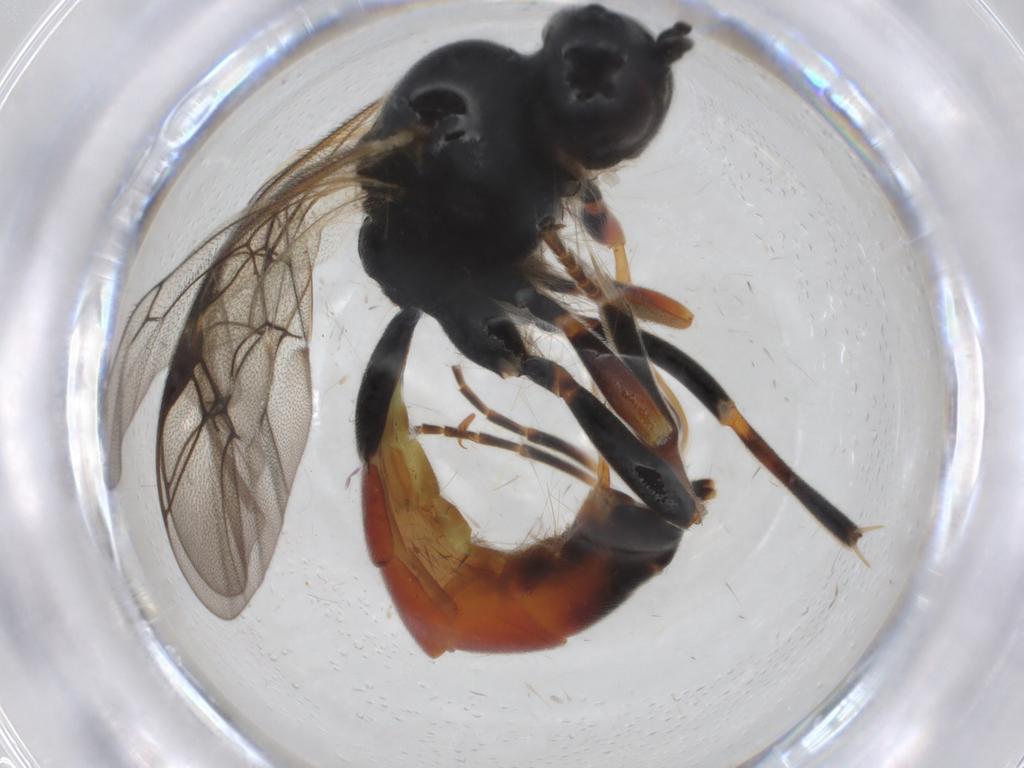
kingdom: Animalia
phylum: Arthropoda
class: Insecta
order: Hymenoptera
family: Ichneumonidae
